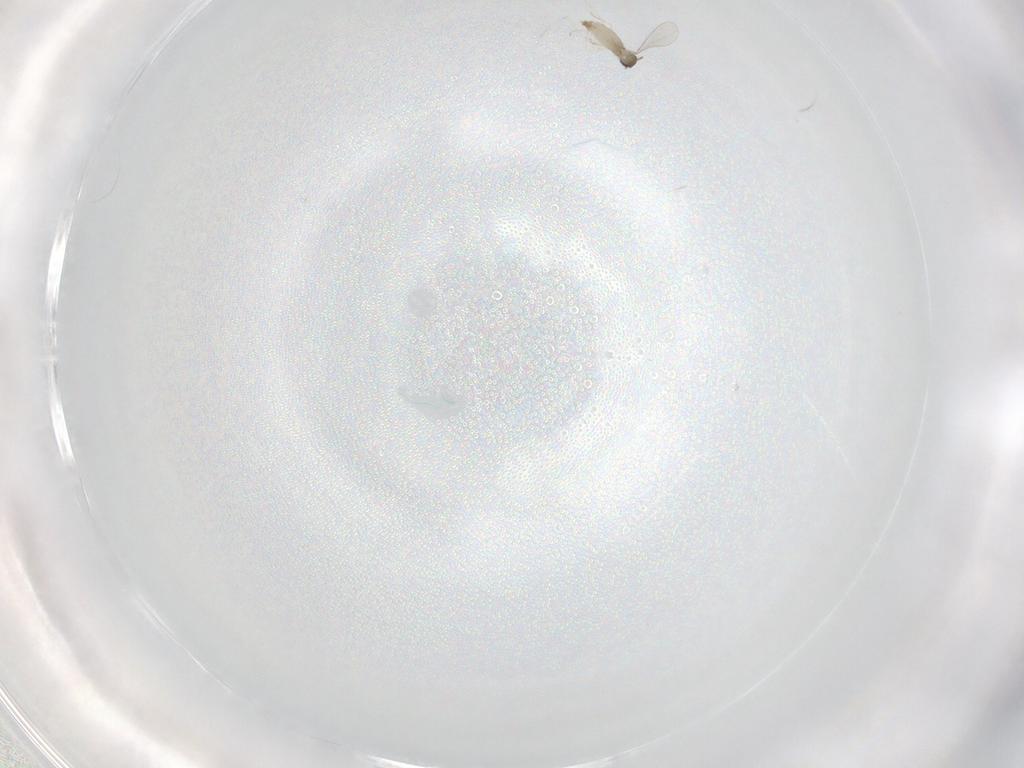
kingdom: Animalia
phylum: Arthropoda
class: Insecta
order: Diptera
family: Cecidomyiidae
